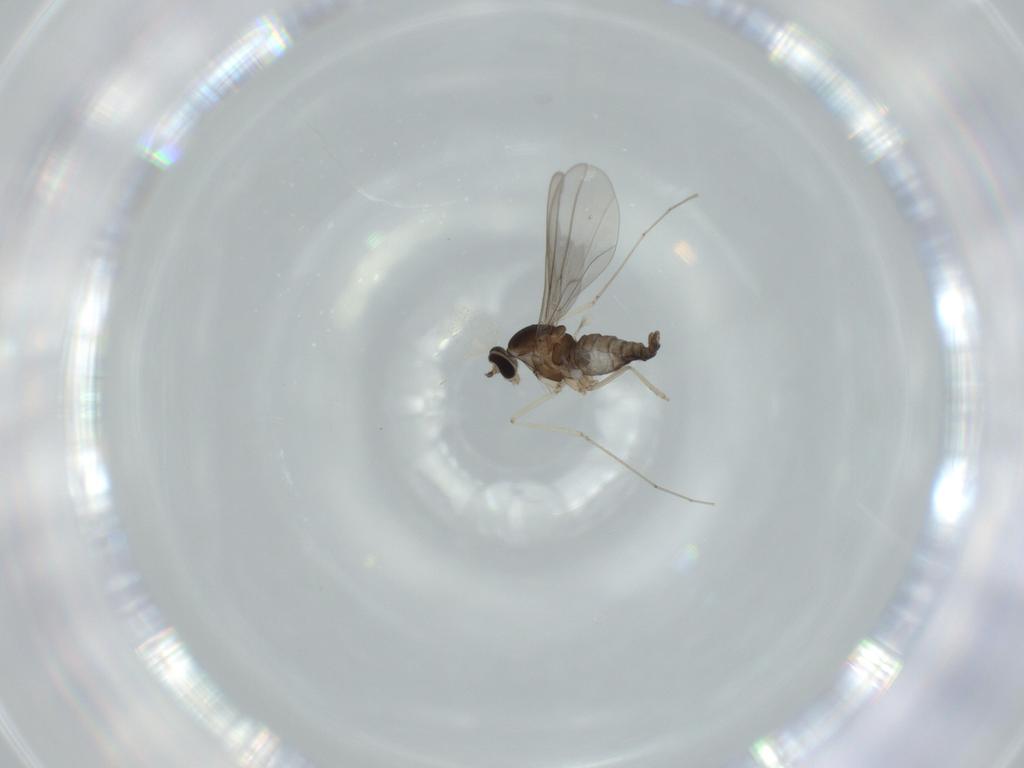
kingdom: Animalia
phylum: Arthropoda
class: Insecta
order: Diptera
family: Cecidomyiidae
